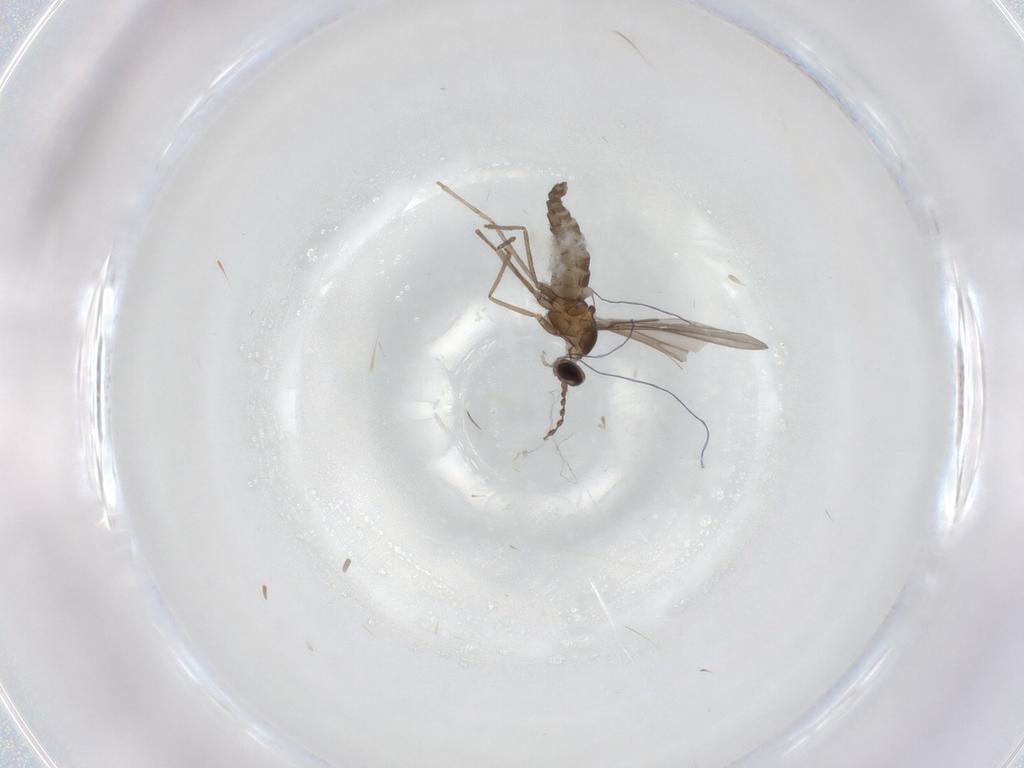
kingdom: Animalia
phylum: Arthropoda
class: Insecta
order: Diptera
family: Cecidomyiidae
